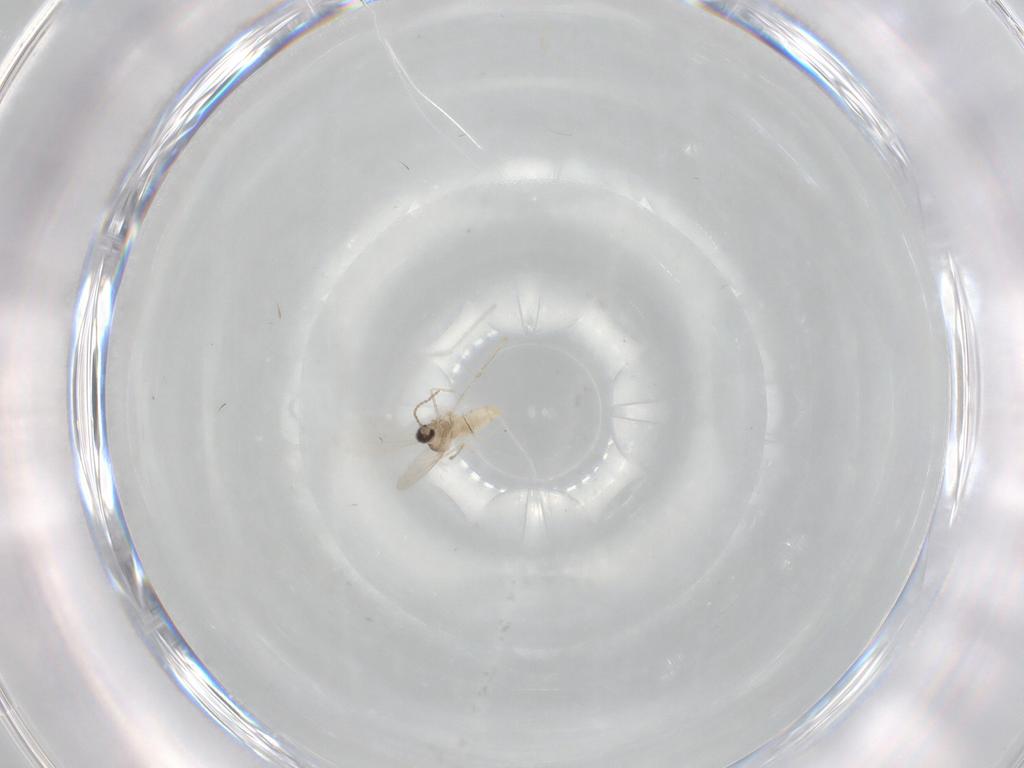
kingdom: Animalia
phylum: Arthropoda
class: Insecta
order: Diptera
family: Cecidomyiidae
